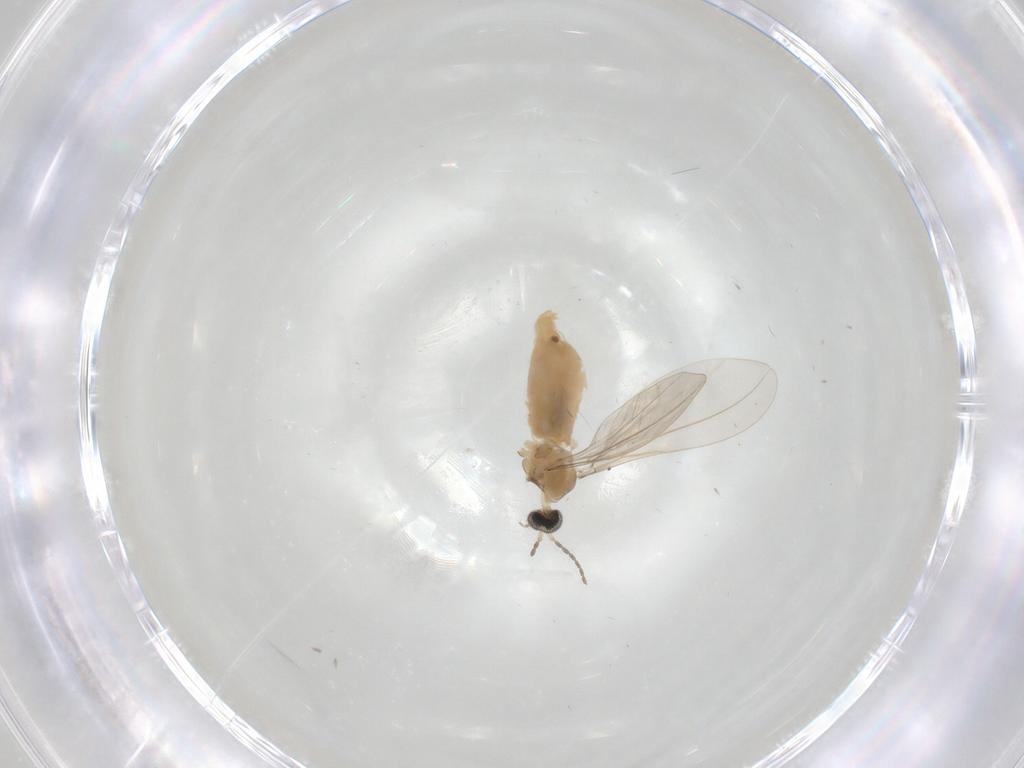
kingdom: Animalia
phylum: Arthropoda
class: Insecta
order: Diptera
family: Cecidomyiidae
